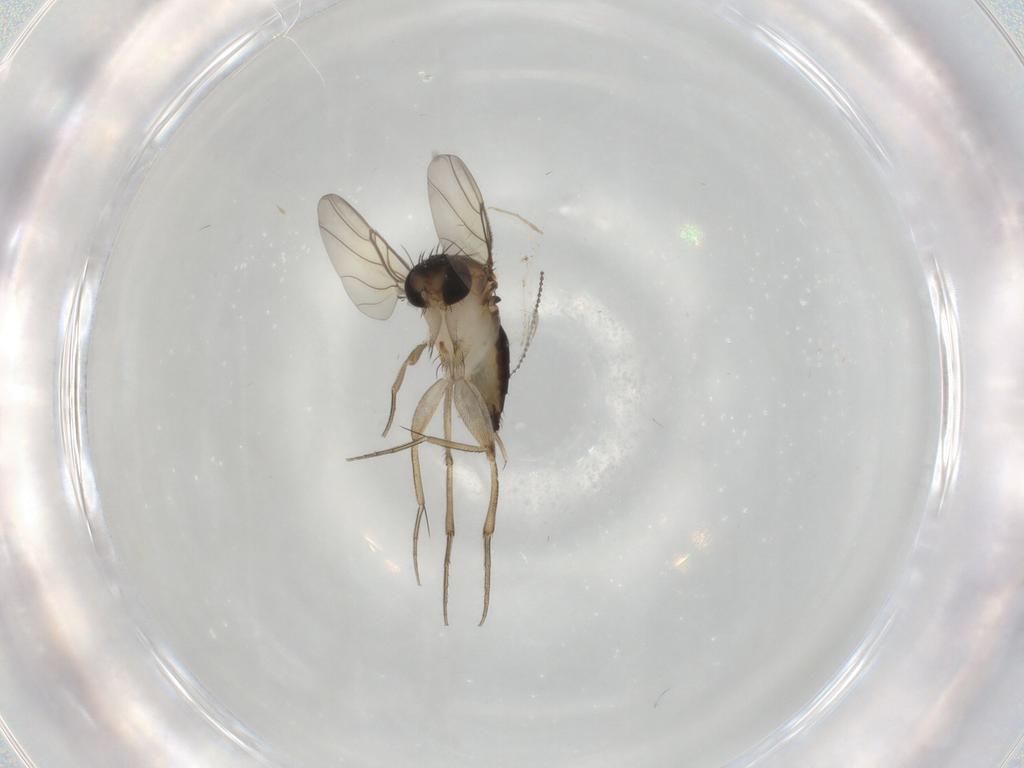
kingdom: Animalia
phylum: Arthropoda
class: Insecta
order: Diptera
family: Phoridae
